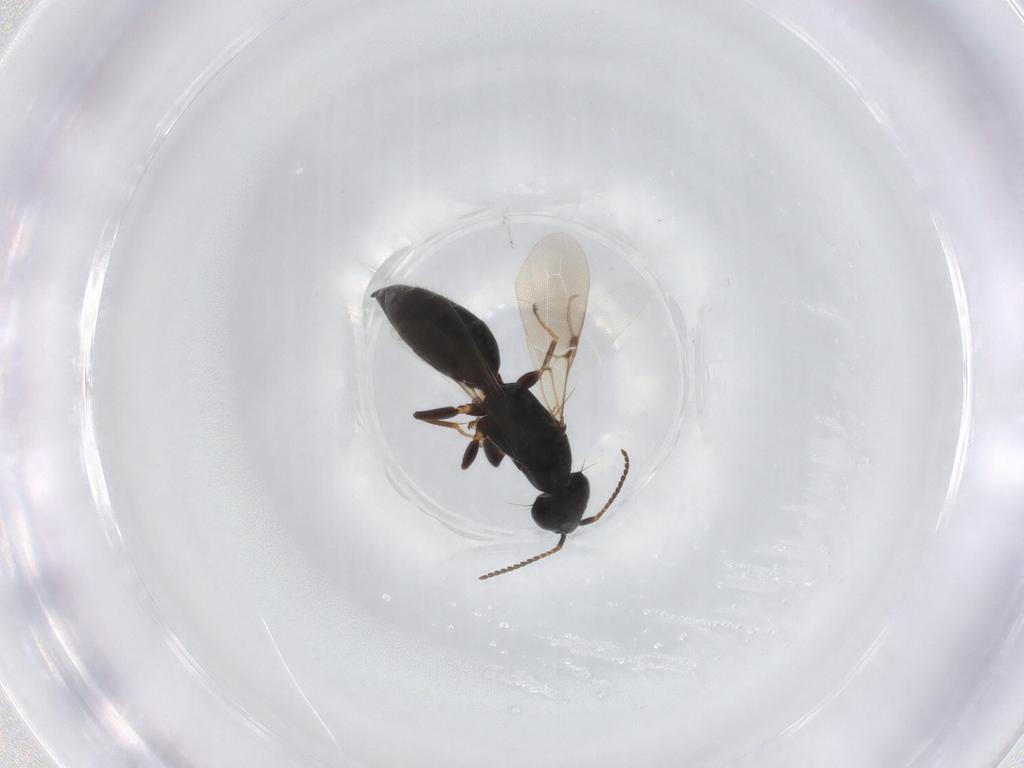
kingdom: Animalia
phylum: Arthropoda
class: Insecta
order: Hymenoptera
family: Bethylidae
